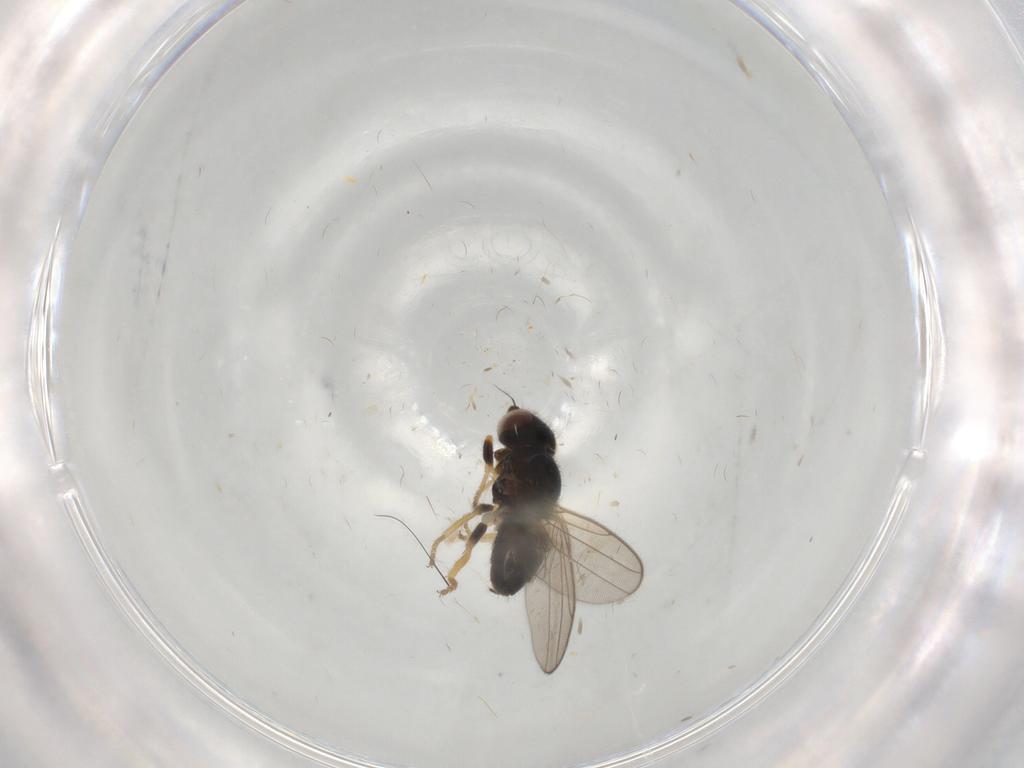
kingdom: Animalia
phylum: Arthropoda
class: Insecta
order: Diptera
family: Chloropidae
